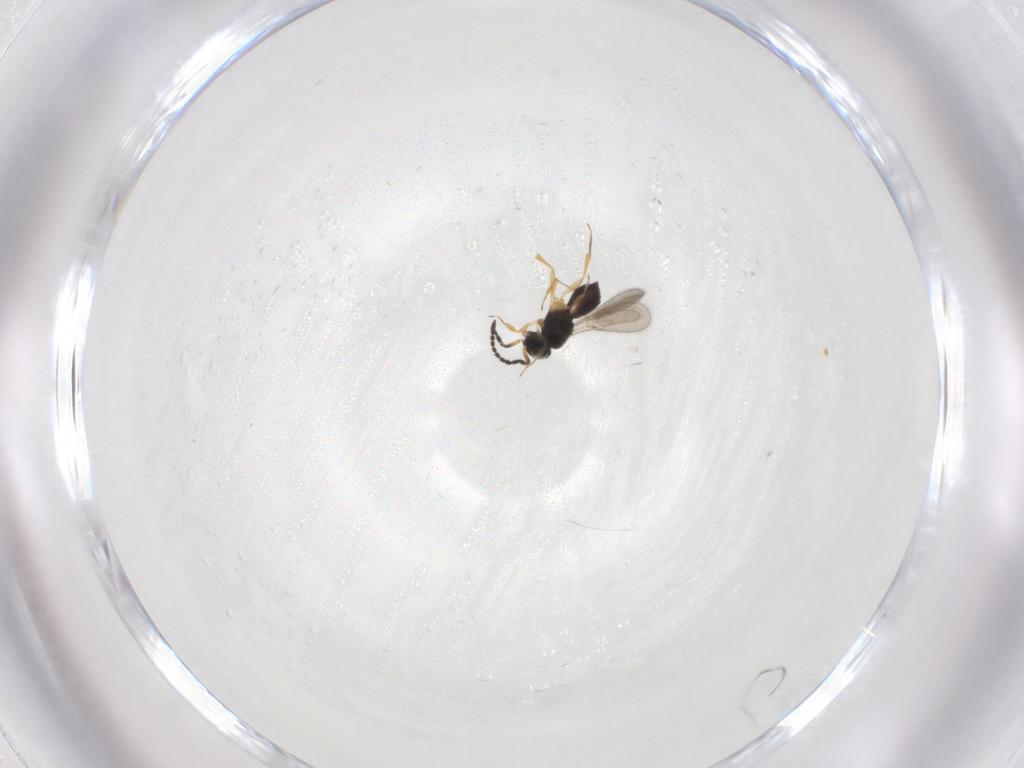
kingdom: Animalia
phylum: Arthropoda
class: Insecta
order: Hymenoptera
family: Scelionidae
